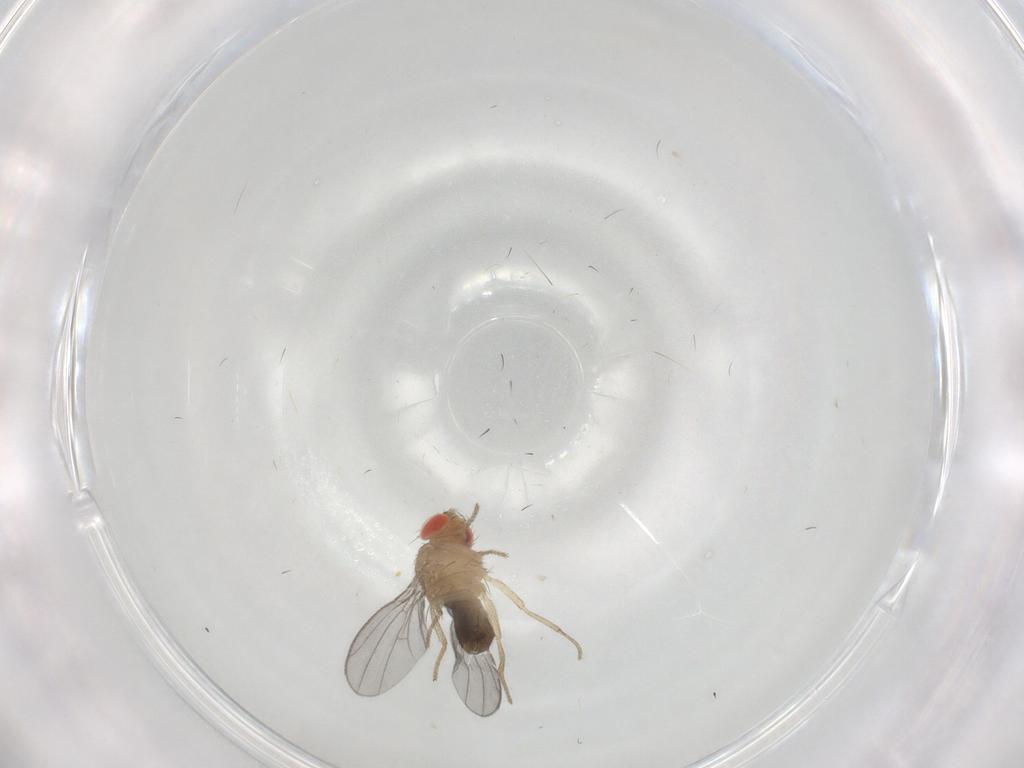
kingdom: Animalia
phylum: Arthropoda
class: Insecta
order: Diptera
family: Drosophilidae
